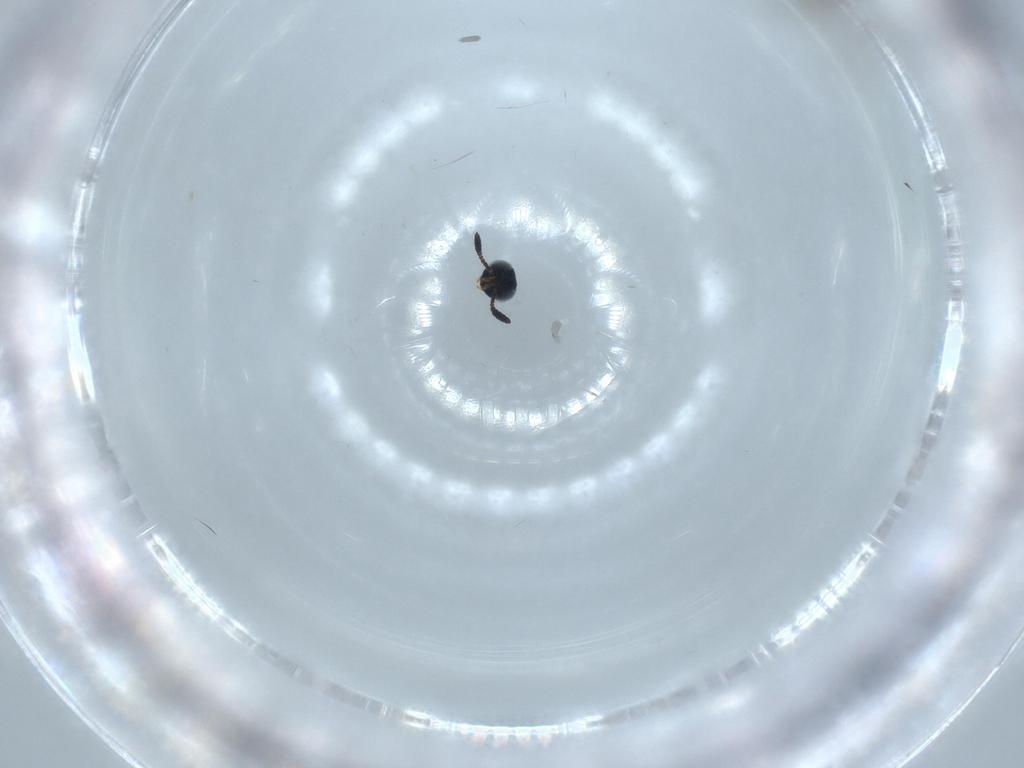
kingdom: Animalia
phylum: Arthropoda
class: Insecta
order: Hymenoptera
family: Scelionidae
